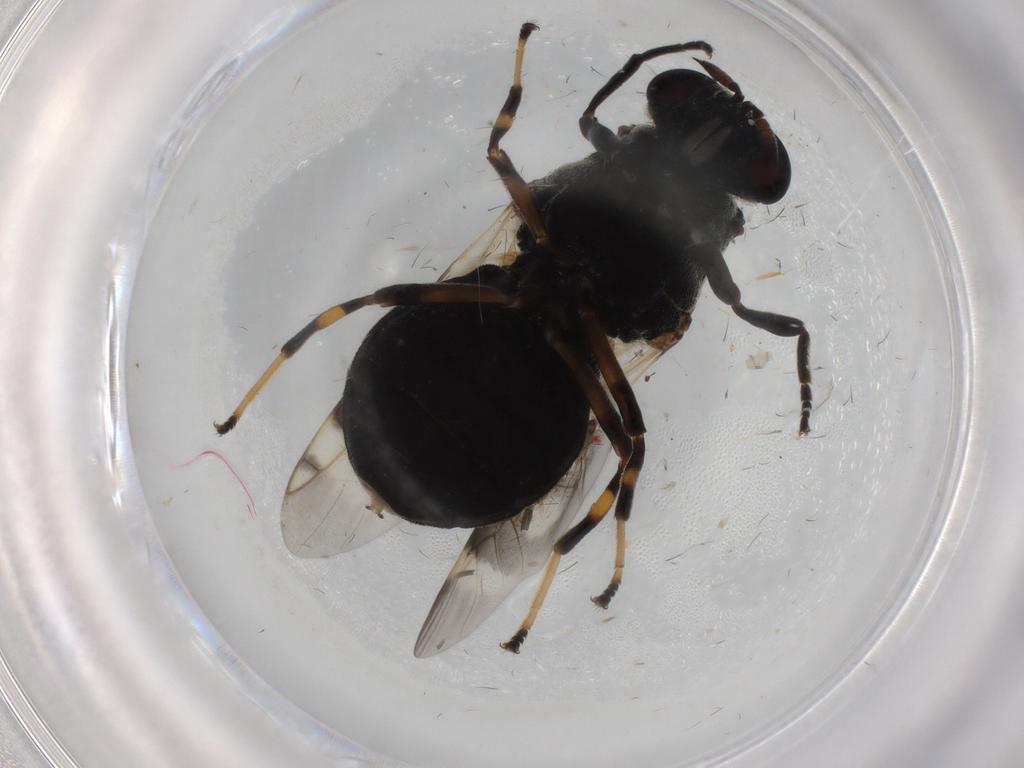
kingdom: Animalia
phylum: Arthropoda
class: Insecta
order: Diptera
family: Stratiomyidae
